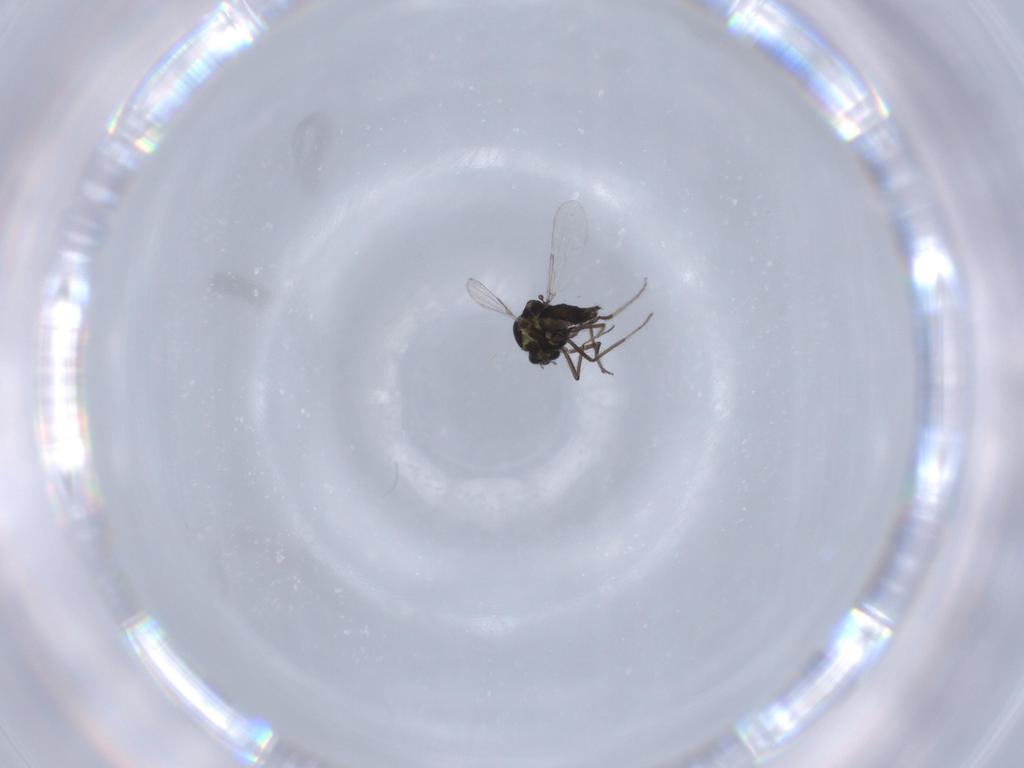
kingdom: Animalia
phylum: Arthropoda
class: Insecta
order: Diptera
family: Ceratopogonidae
